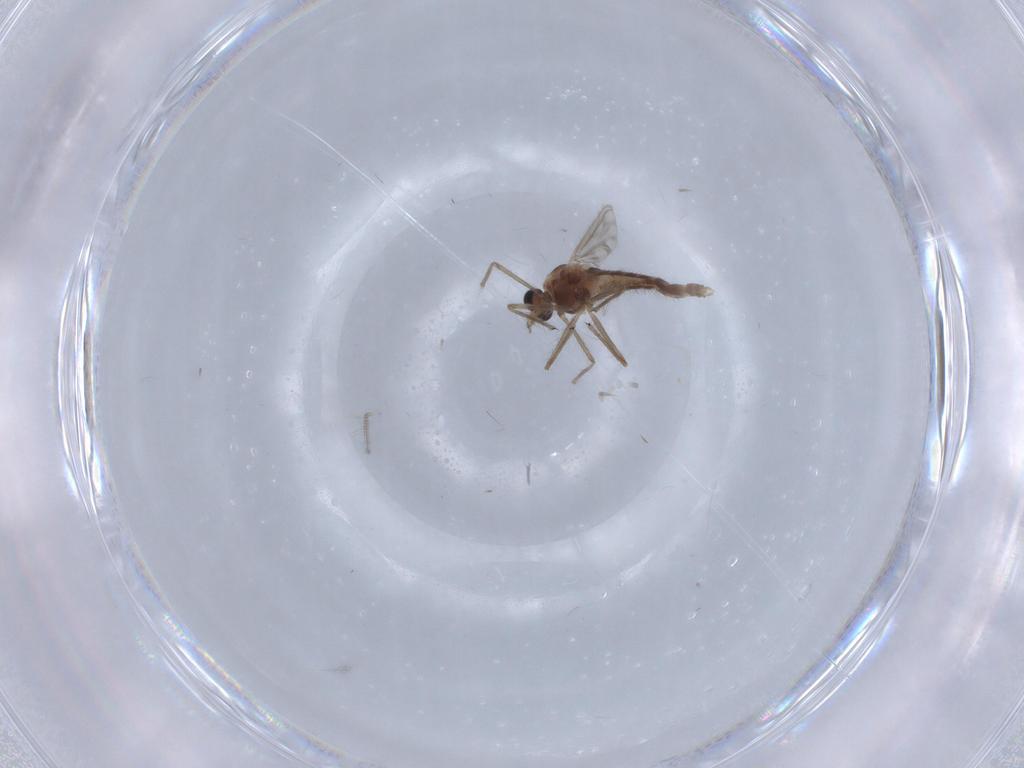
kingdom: Animalia
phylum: Arthropoda
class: Insecta
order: Diptera
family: Chironomidae
